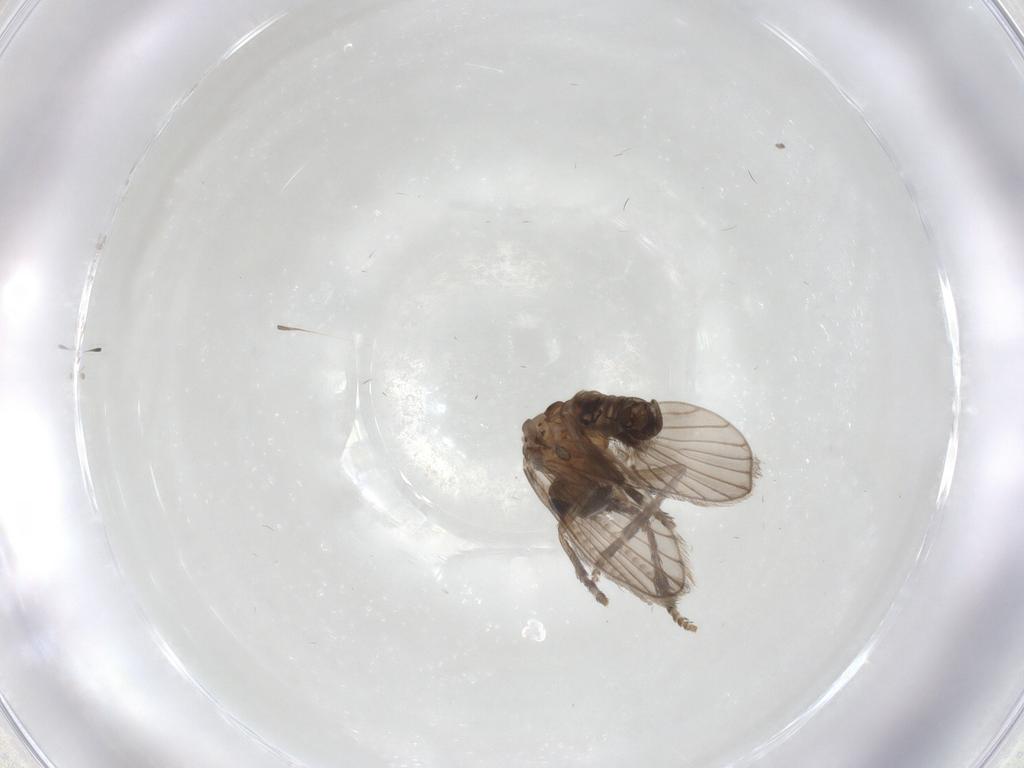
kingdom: Animalia
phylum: Arthropoda
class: Insecta
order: Diptera
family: Psychodidae
